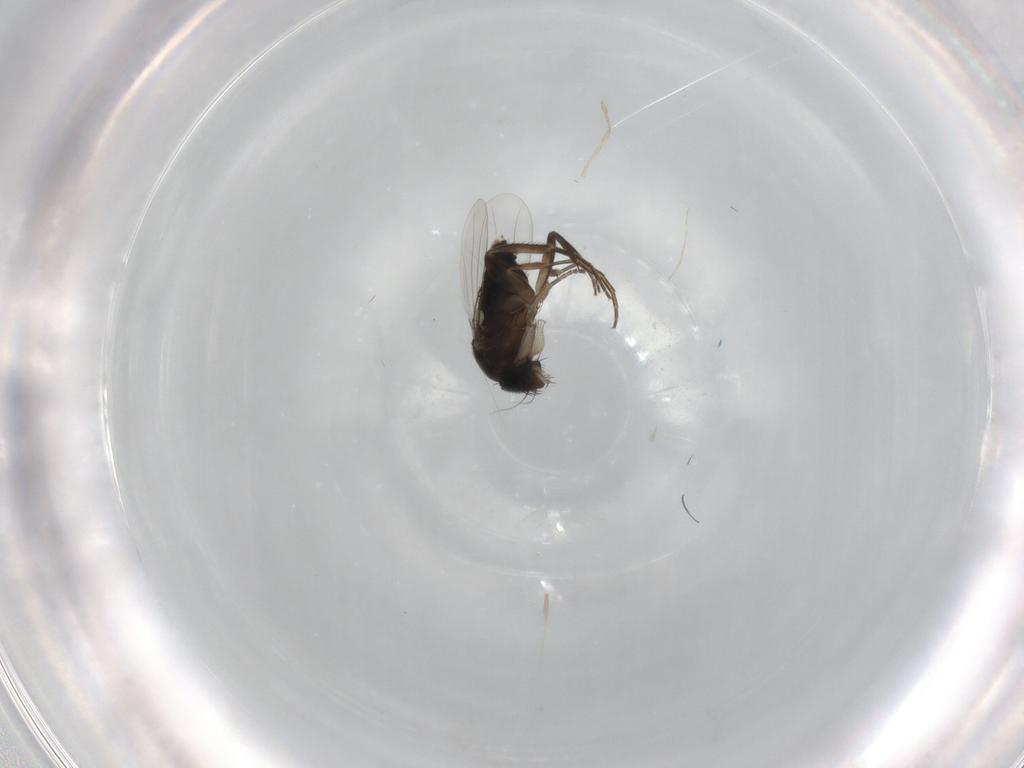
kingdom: Animalia
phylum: Arthropoda
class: Insecta
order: Diptera
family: Phoridae
